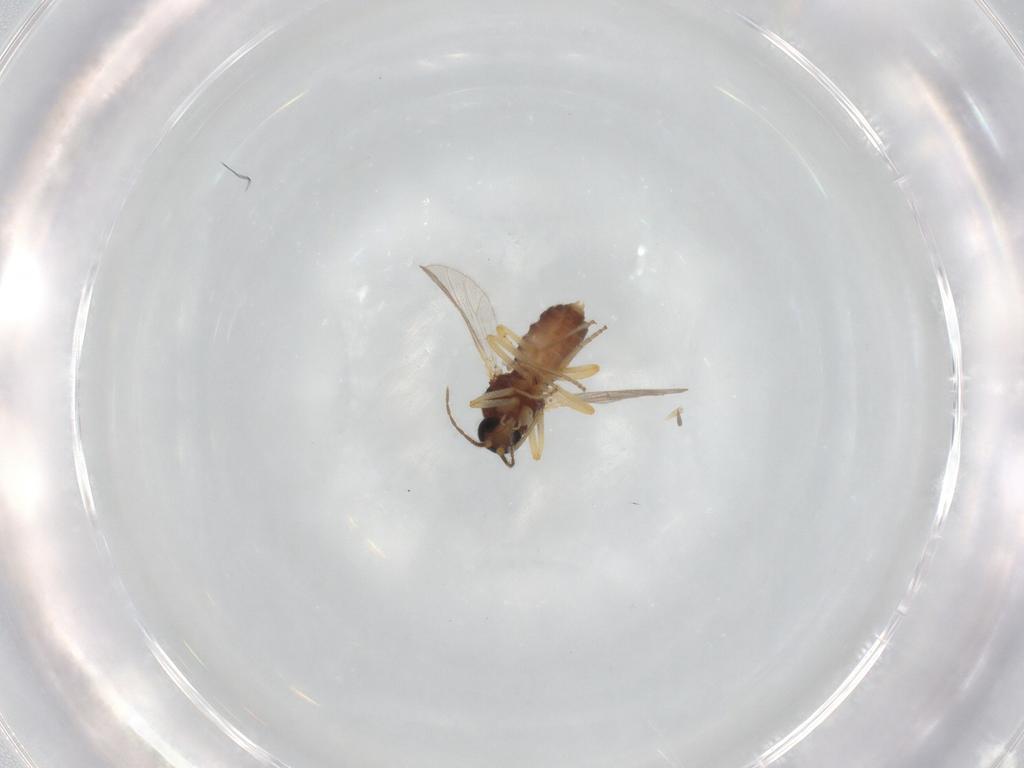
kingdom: Animalia
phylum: Arthropoda
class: Insecta
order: Diptera
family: Ceratopogonidae
